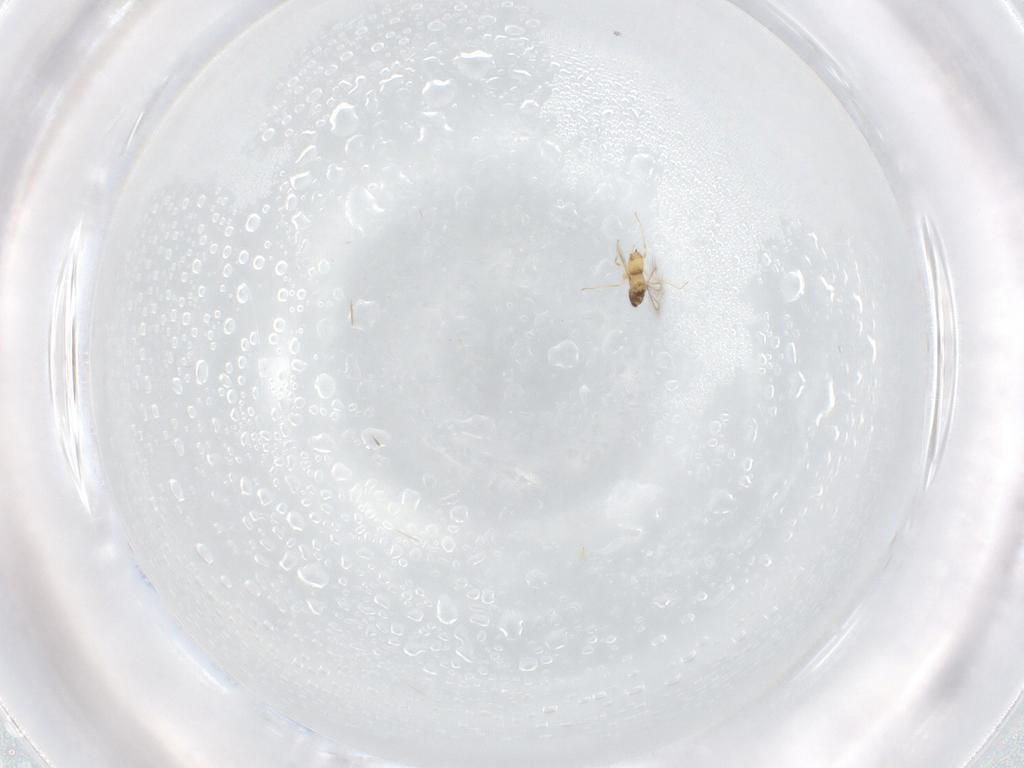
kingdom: Animalia
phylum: Arthropoda
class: Insecta
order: Hymenoptera
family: Mymaridae
